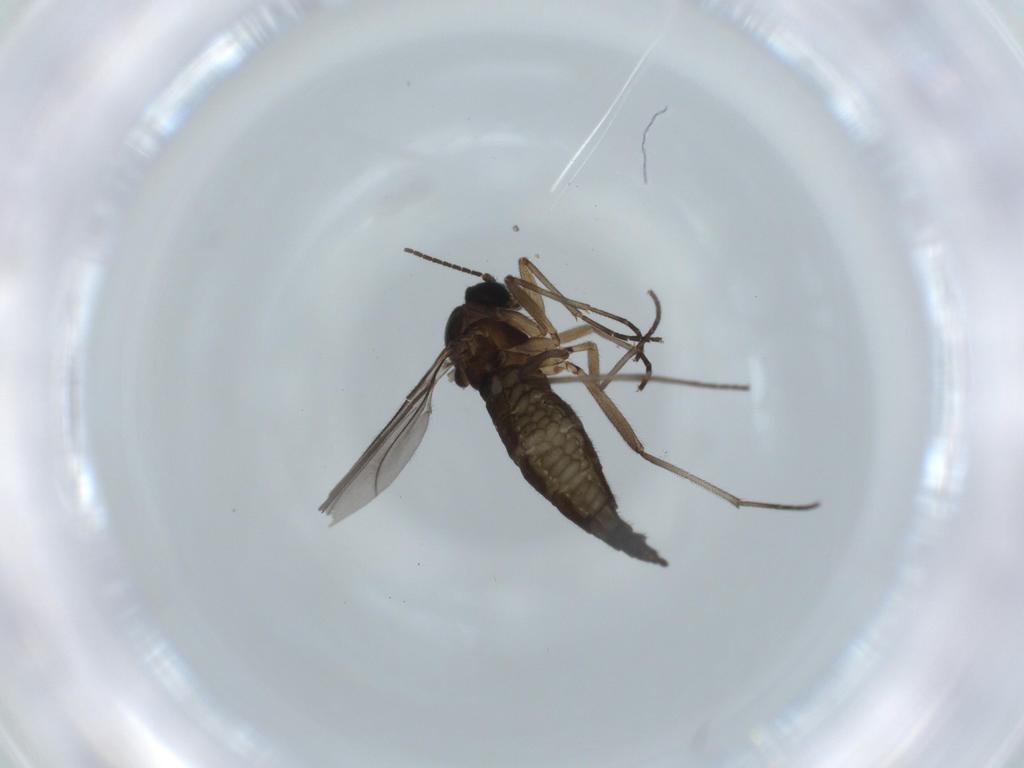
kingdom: Animalia
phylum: Arthropoda
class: Insecta
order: Diptera
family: Sciaridae
